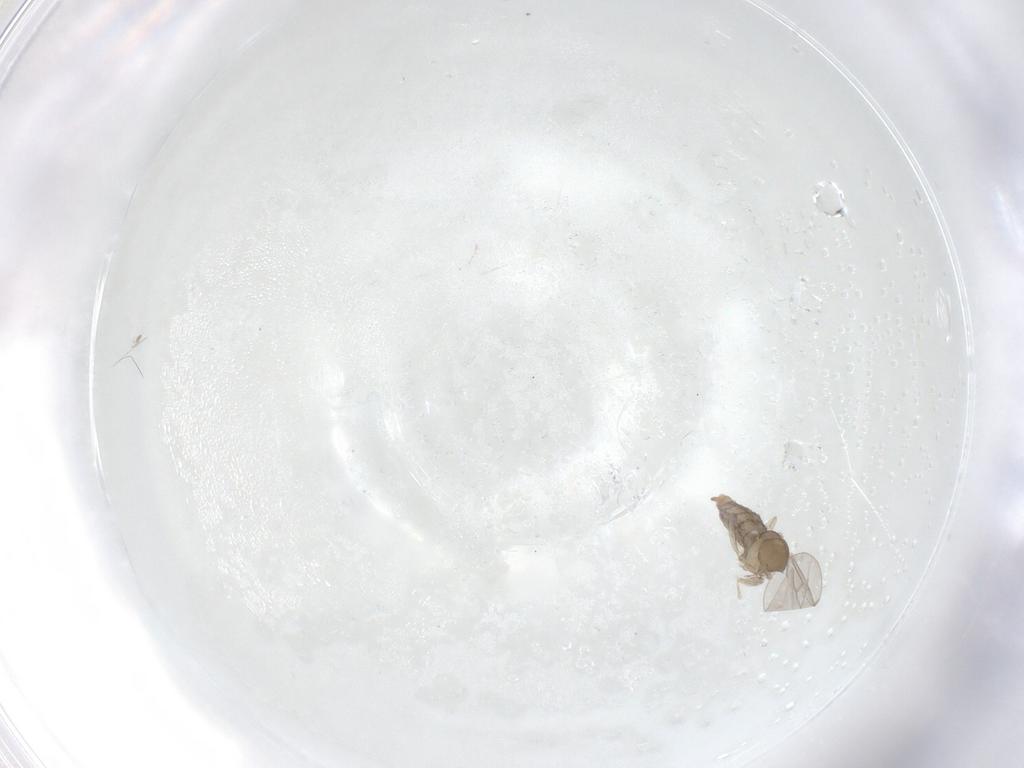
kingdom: Animalia
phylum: Arthropoda
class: Insecta
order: Diptera
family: Cecidomyiidae
